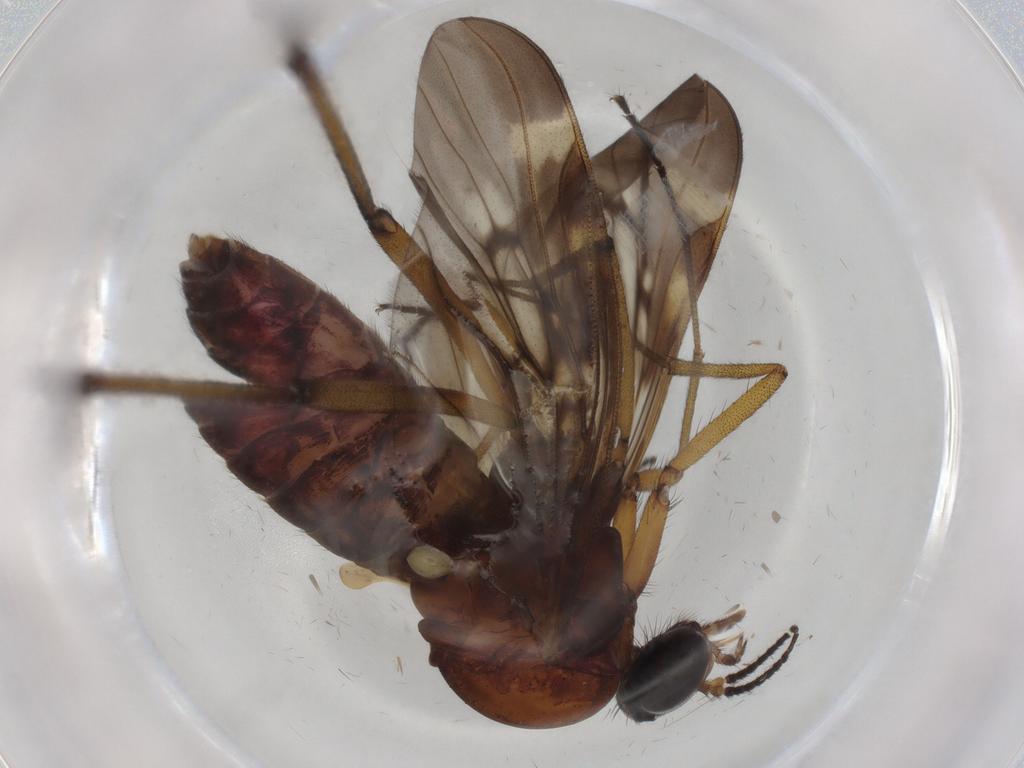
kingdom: Animalia
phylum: Arthropoda
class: Insecta
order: Diptera
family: Chironomidae
